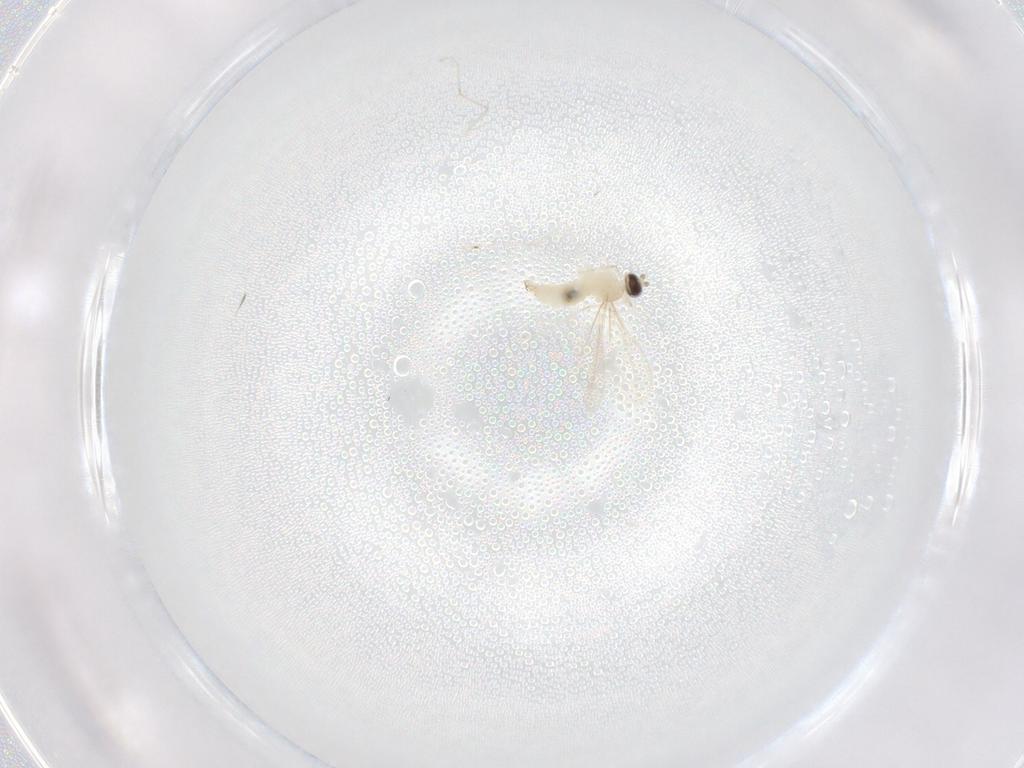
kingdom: Animalia
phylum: Arthropoda
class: Insecta
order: Diptera
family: Cecidomyiidae
